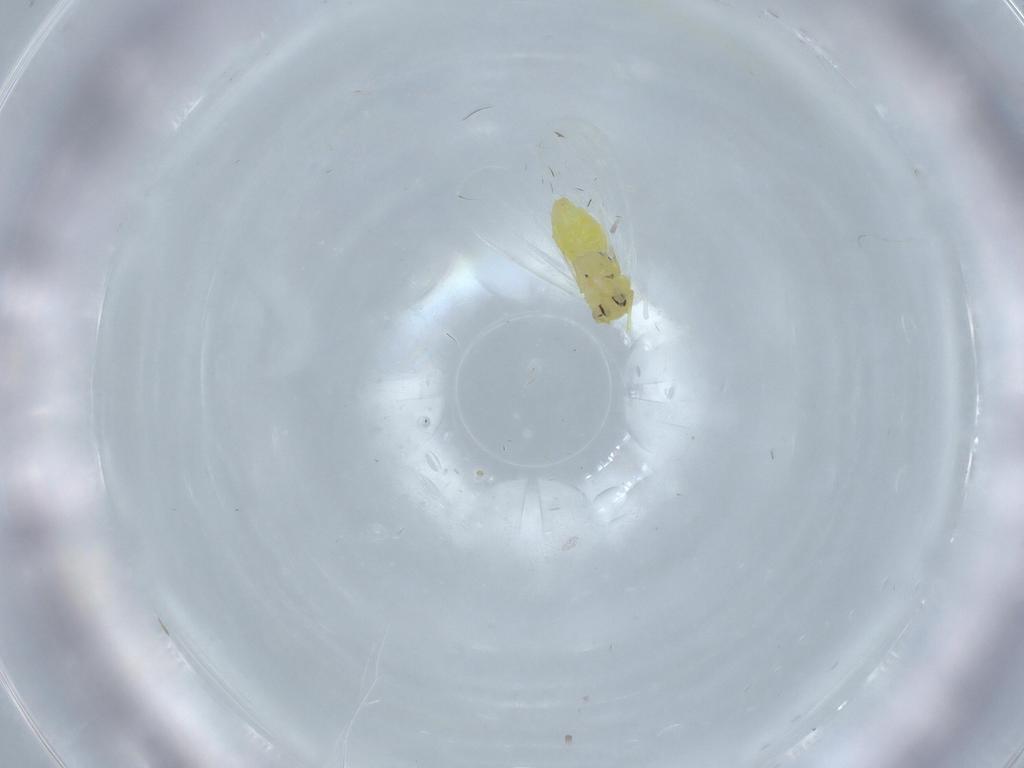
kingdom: Animalia
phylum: Arthropoda
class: Insecta
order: Hemiptera
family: Aleyrodidae
